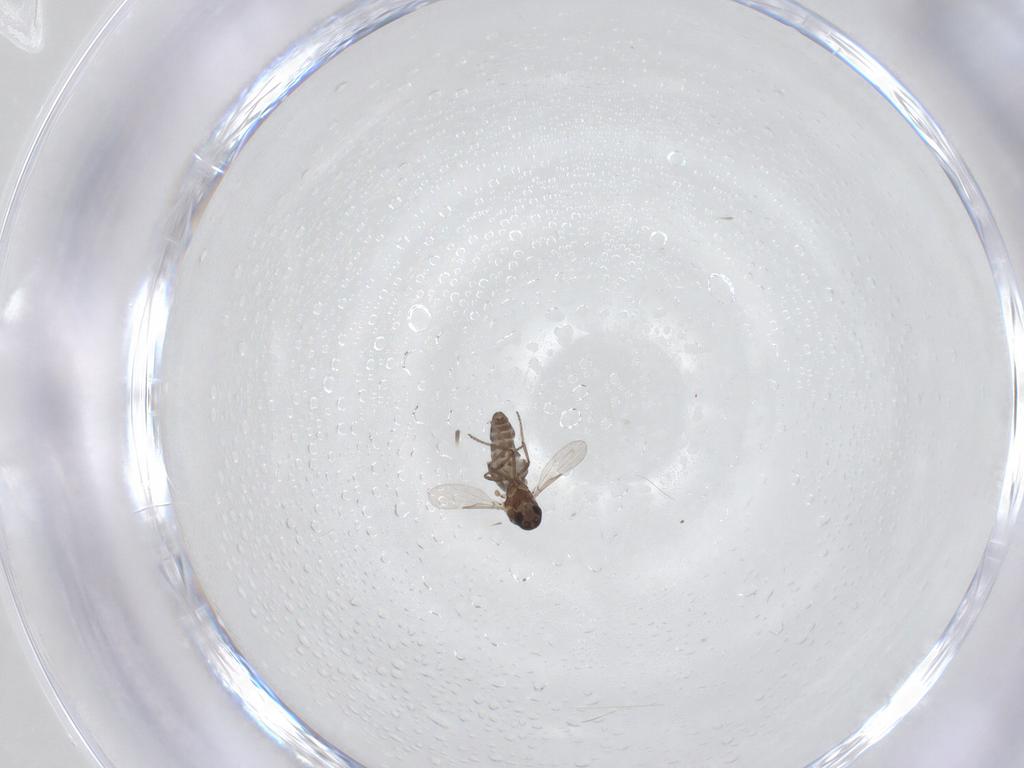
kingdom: Animalia
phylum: Arthropoda
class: Insecta
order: Diptera
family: Ceratopogonidae
